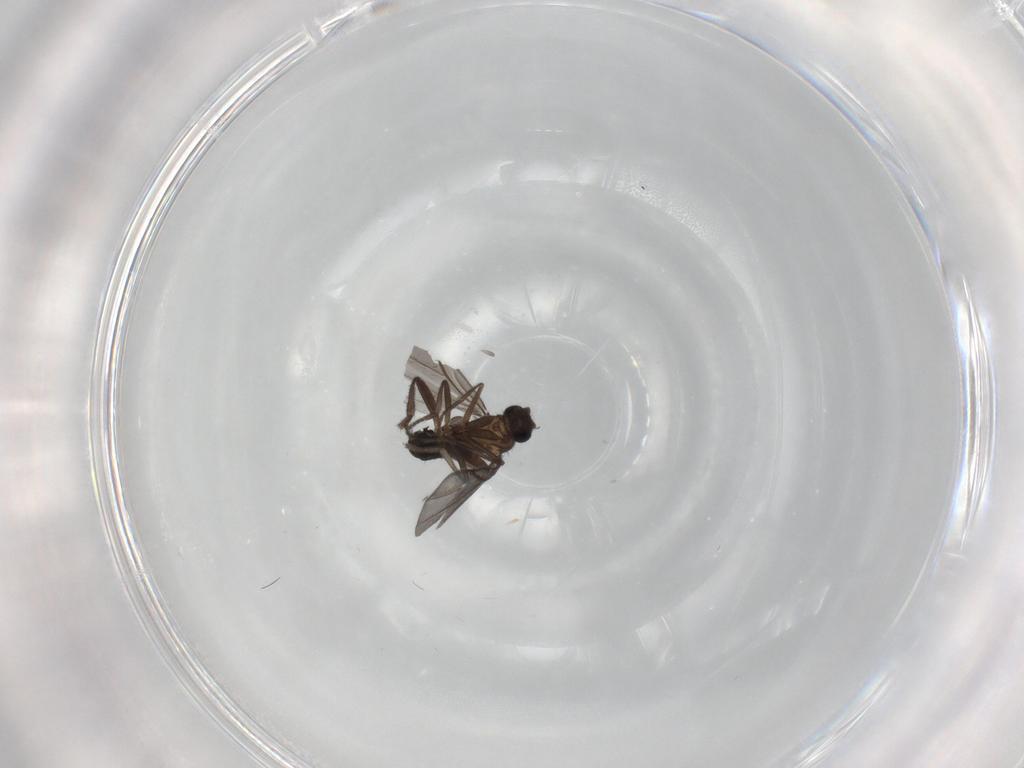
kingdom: Animalia
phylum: Arthropoda
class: Insecta
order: Diptera
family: Phoridae
